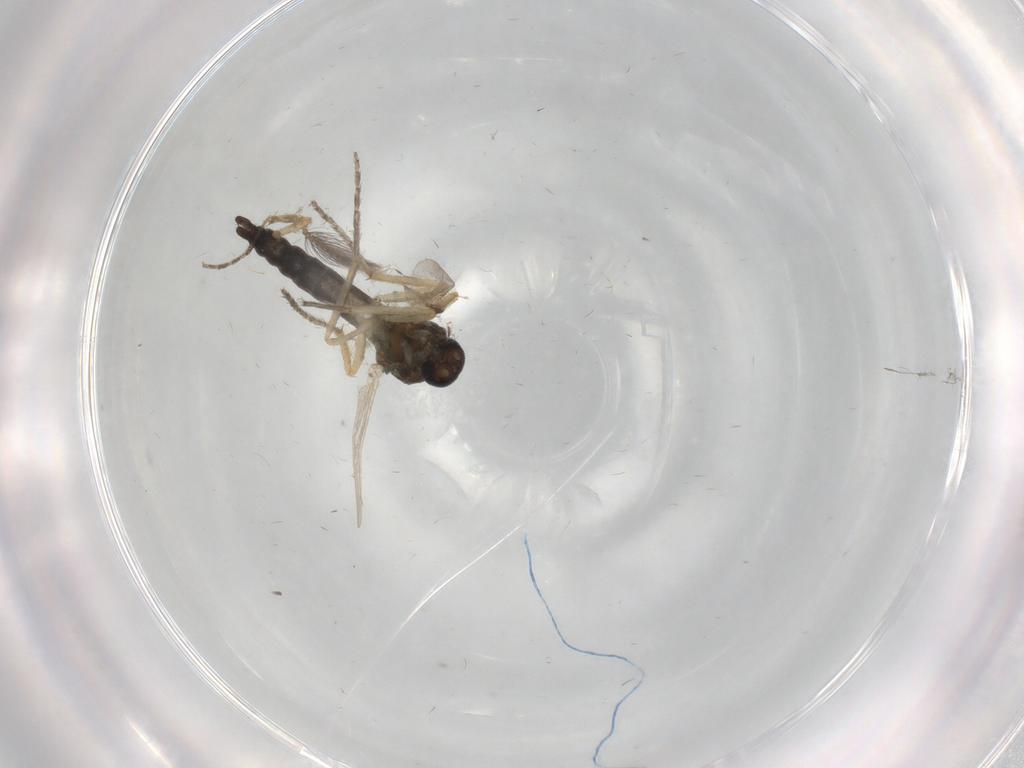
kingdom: Animalia
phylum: Arthropoda
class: Insecta
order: Diptera
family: Ceratopogonidae
